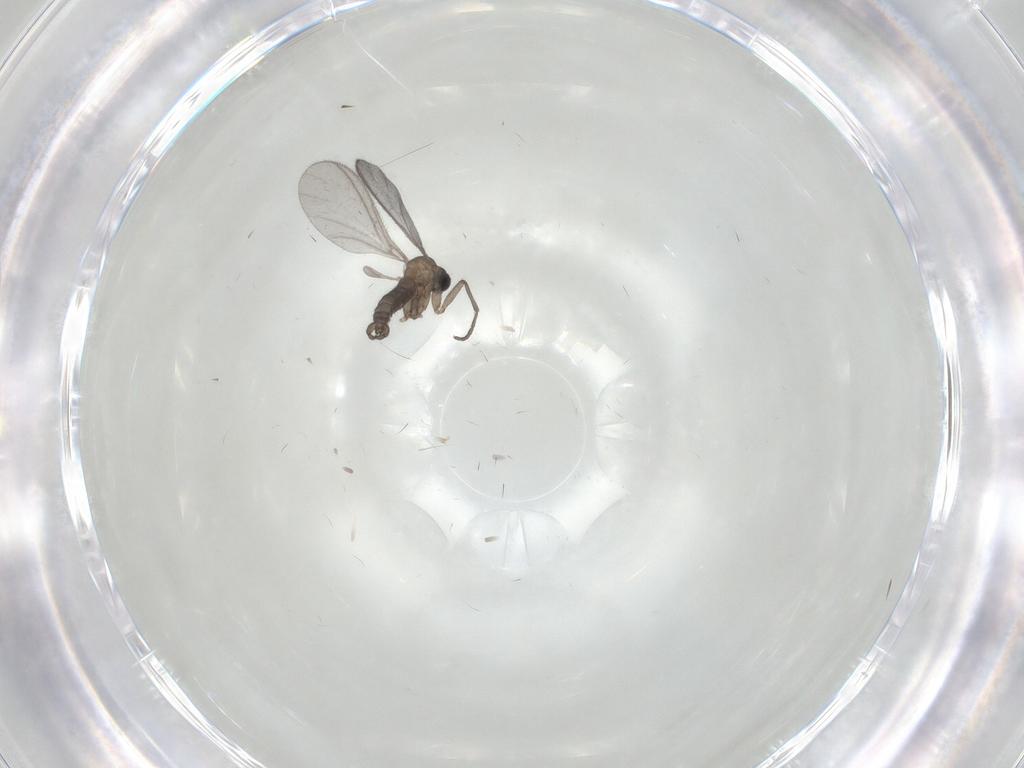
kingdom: Animalia
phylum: Arthropoda
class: Insecta
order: Diptera
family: Sciaridae
